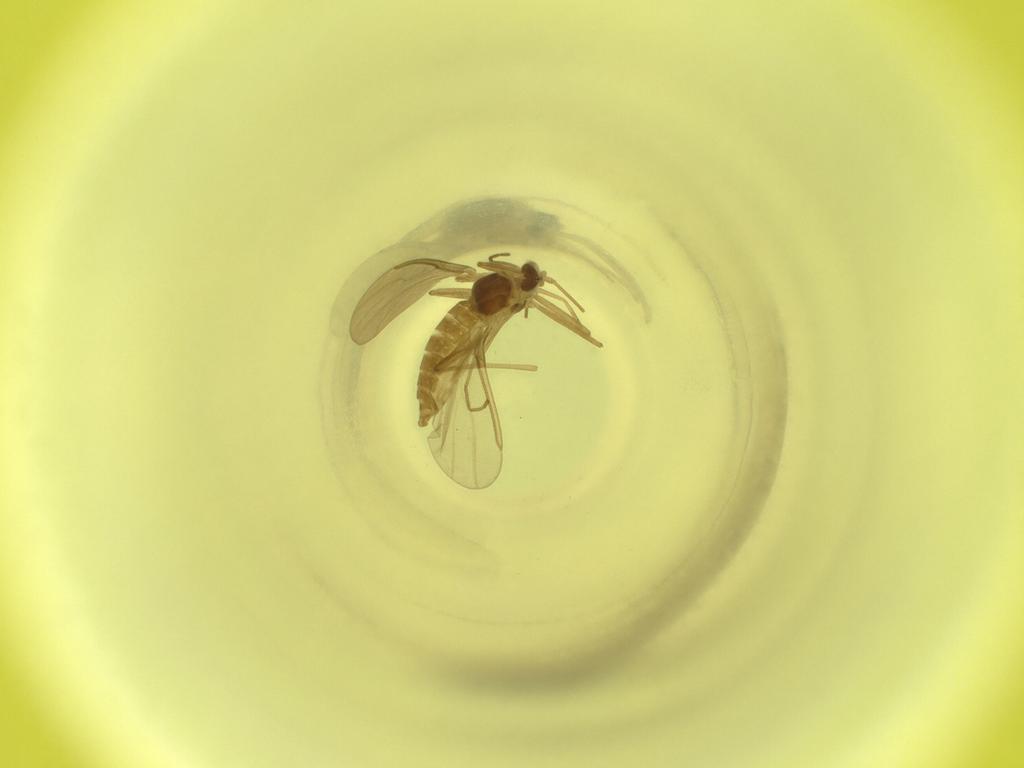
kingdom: Animalia
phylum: Arthropoda
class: Insecta
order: Diptera
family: Cecidomyiidae
